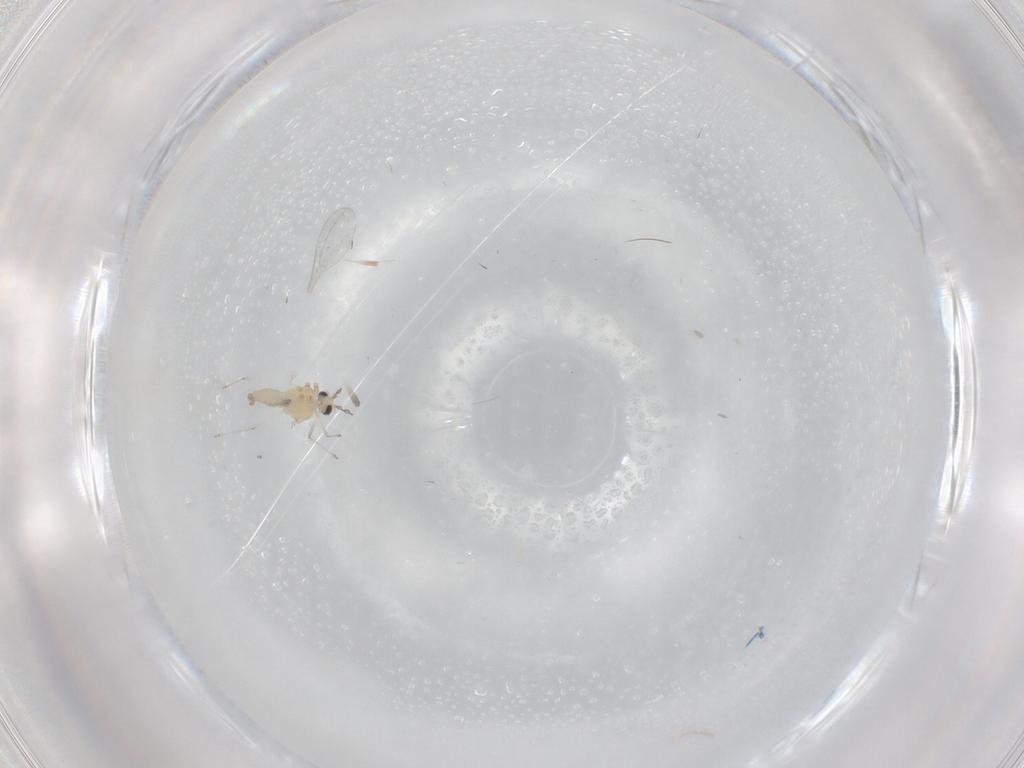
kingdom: Animalia
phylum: Arthropoda
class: Insecta
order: Diptera
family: Cecidomyiidae
